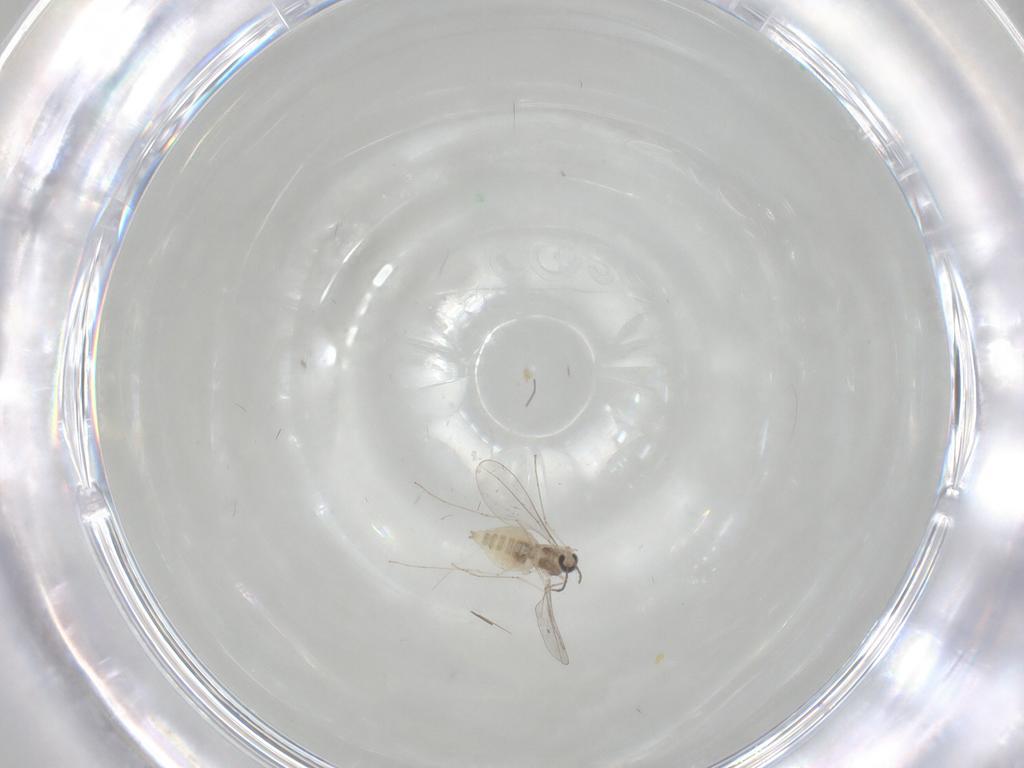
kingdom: Animalia
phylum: Arthropoda
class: Insecta
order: Diptera
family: Cecidomyiidae
